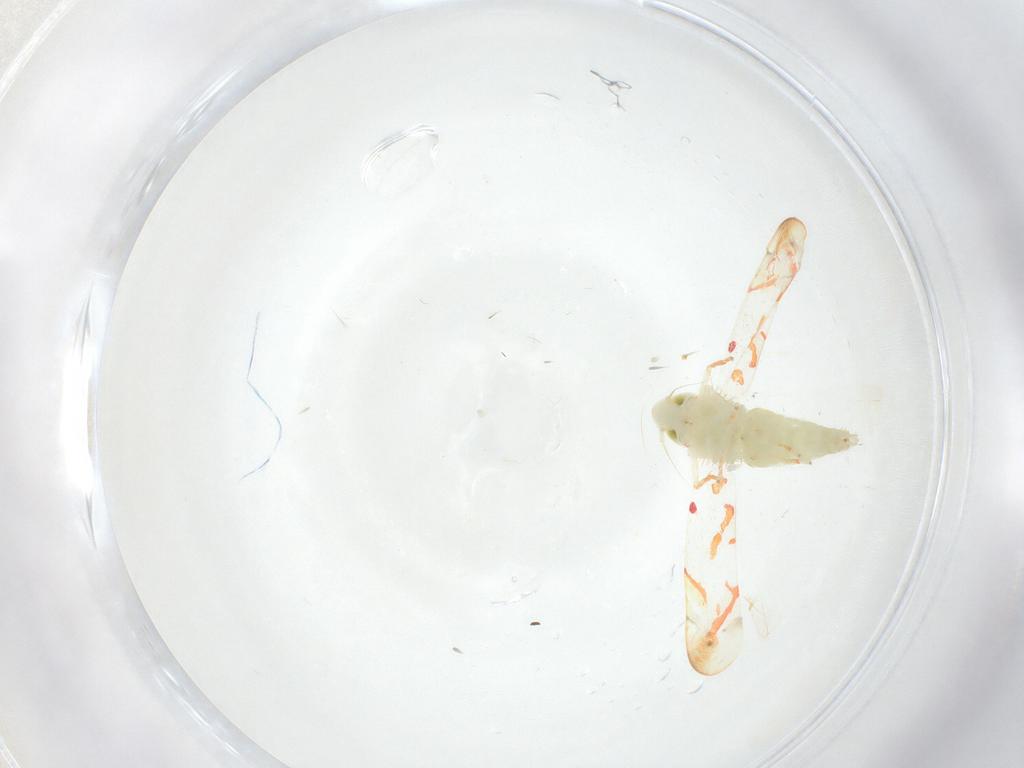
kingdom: Animalia
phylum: Arthropoda
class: Insecta
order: Hemiptera
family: Cicadellidae
